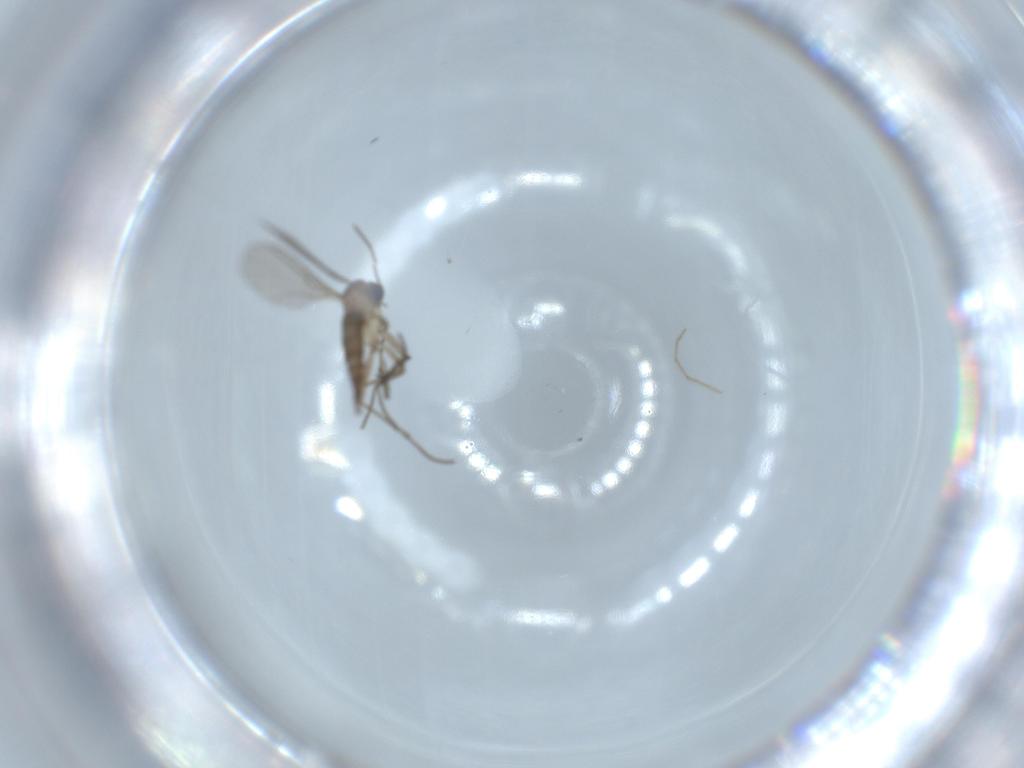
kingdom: Animalia
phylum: Arthropoda
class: Insecta
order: Diptera
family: Sciaridae
